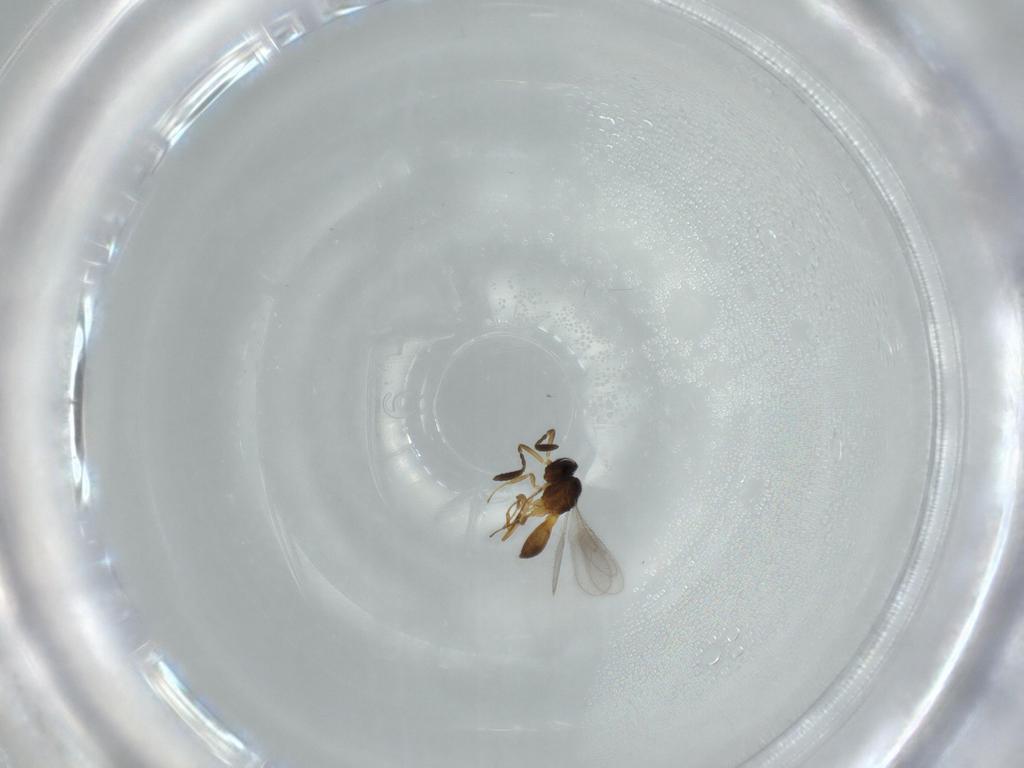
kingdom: Animalia
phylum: Arthropoda
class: Insecta
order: Hymenoptera
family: Scelionidae
